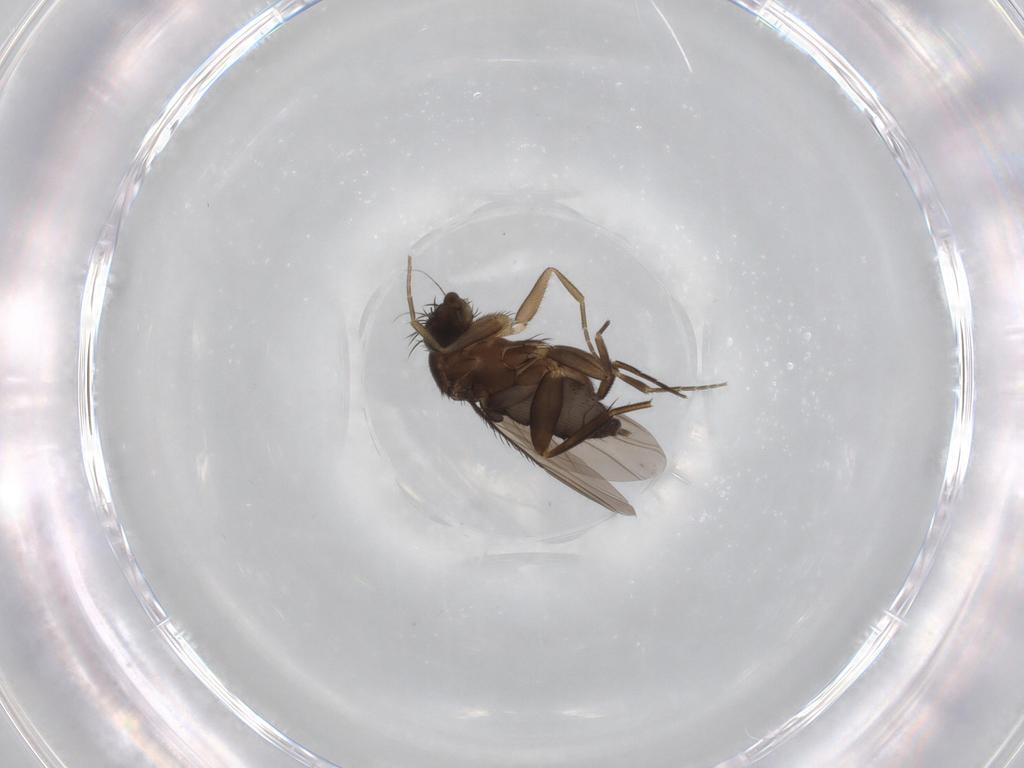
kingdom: Animalia
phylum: Arthropoda
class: Insecta
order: Diptera
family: Phoridae
